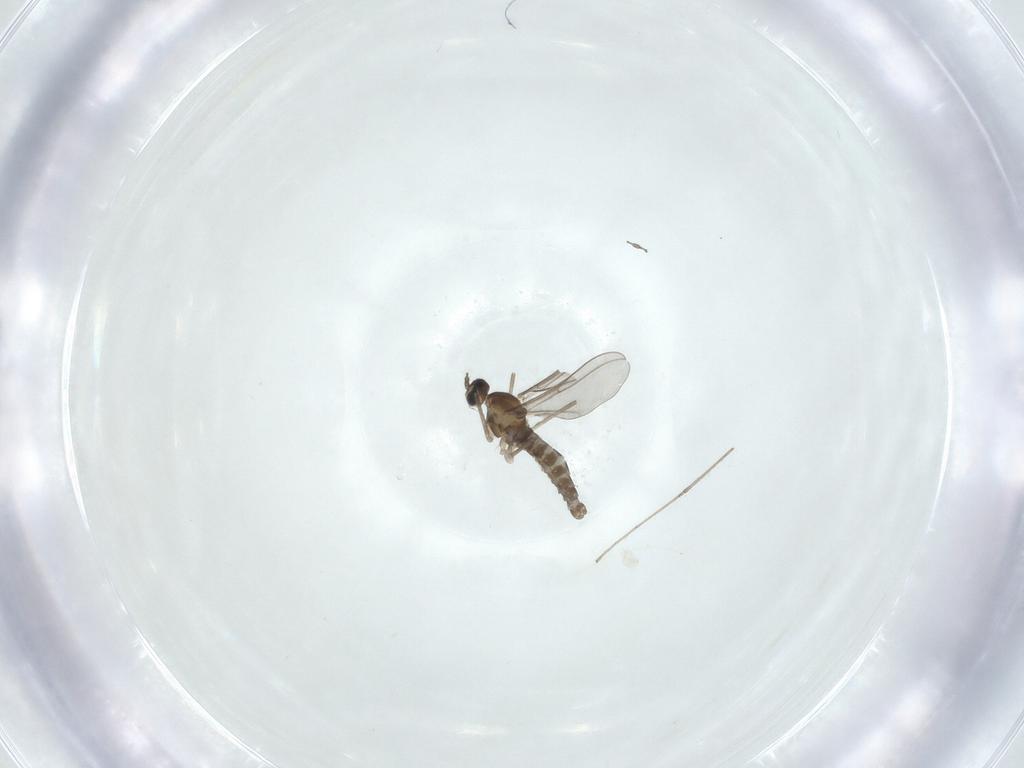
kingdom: Animalia
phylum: Arthropoda
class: Insecta
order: Diptera
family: Cecidomyiidae
